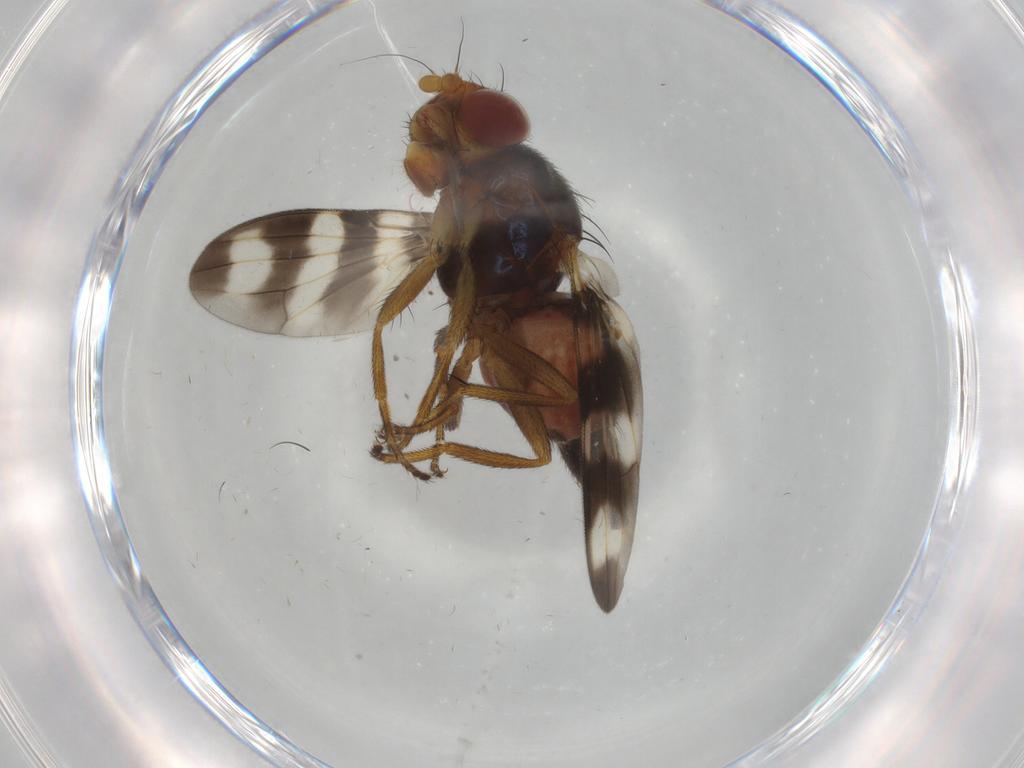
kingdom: Animalia
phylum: Arthropoda
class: Insecta
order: Diptera
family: Ulidiidae
